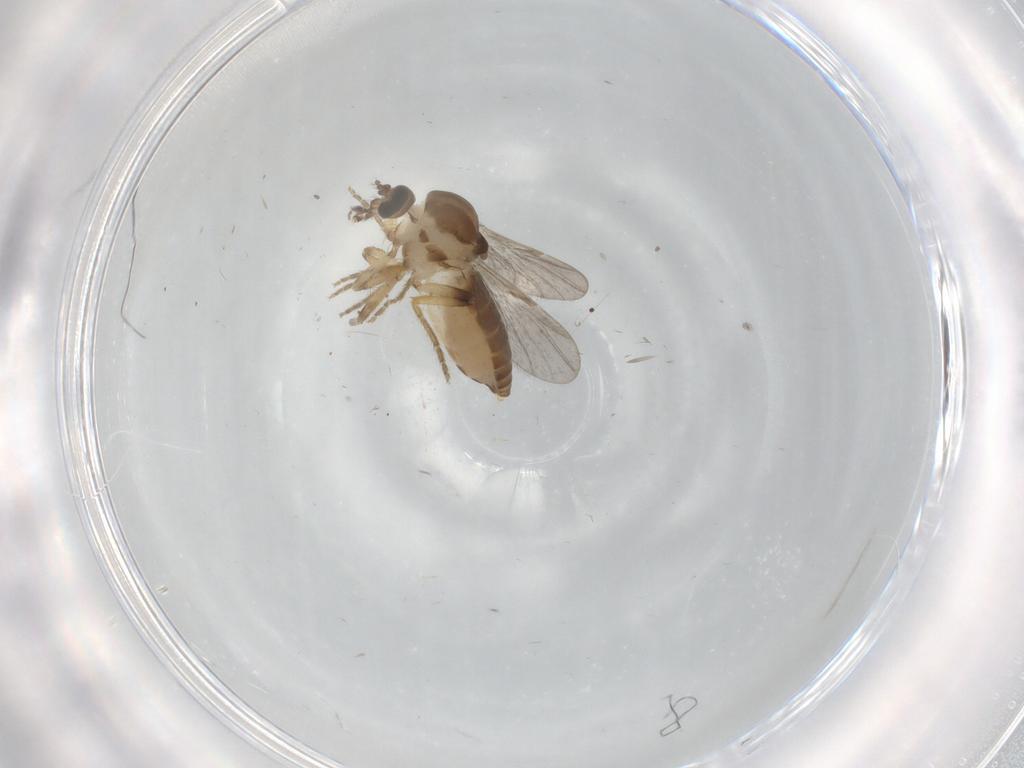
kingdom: Animalia
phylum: Arthropoda
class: Insecta
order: Diptera
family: Ceratopogonidae
